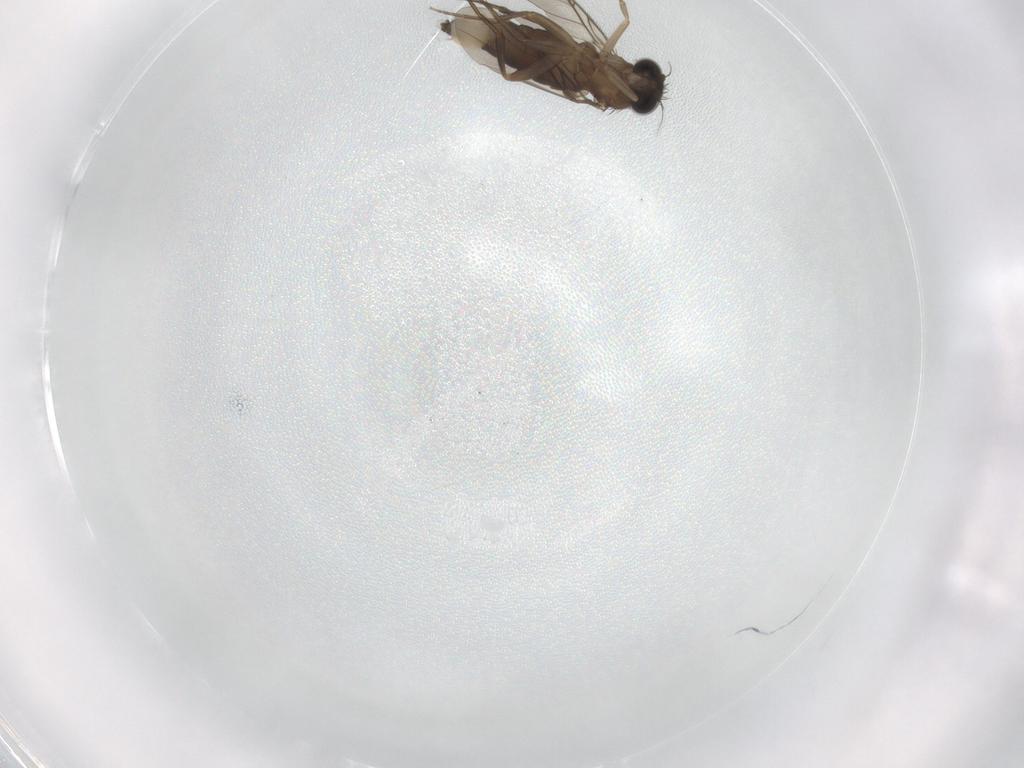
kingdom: Animalia
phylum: Arthropoda
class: Insecta
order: Diptera
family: Phoridae
